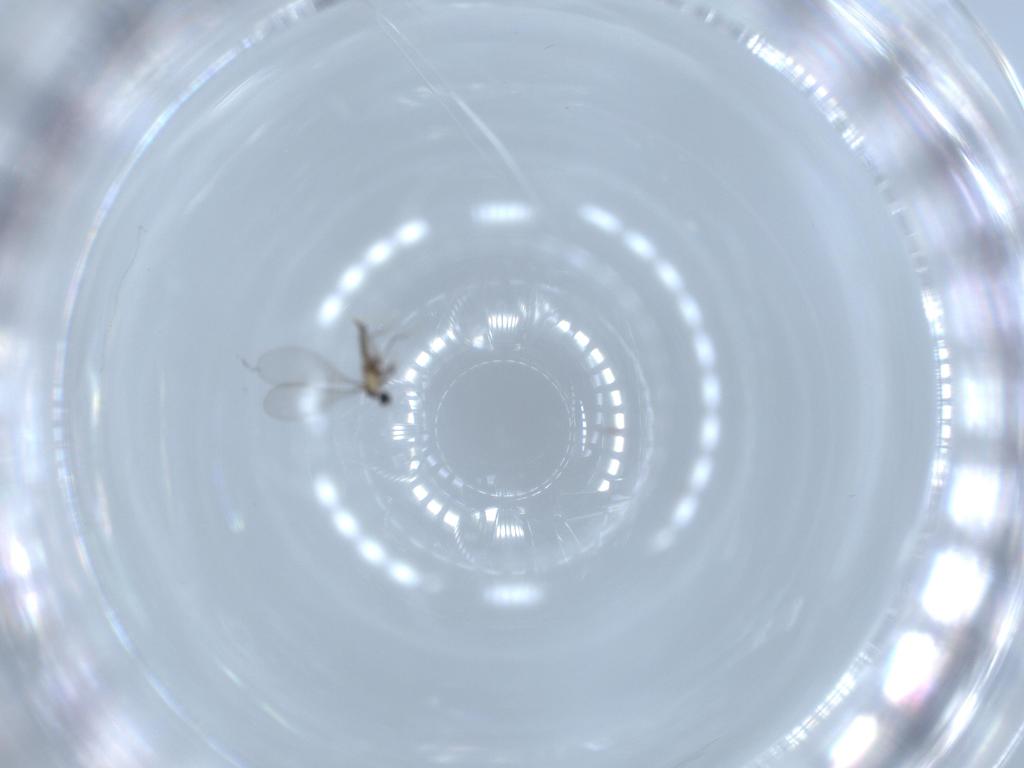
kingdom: Animalia
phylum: Arthropoda
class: Insecta
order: Diptera
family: Cecidomyiidae
